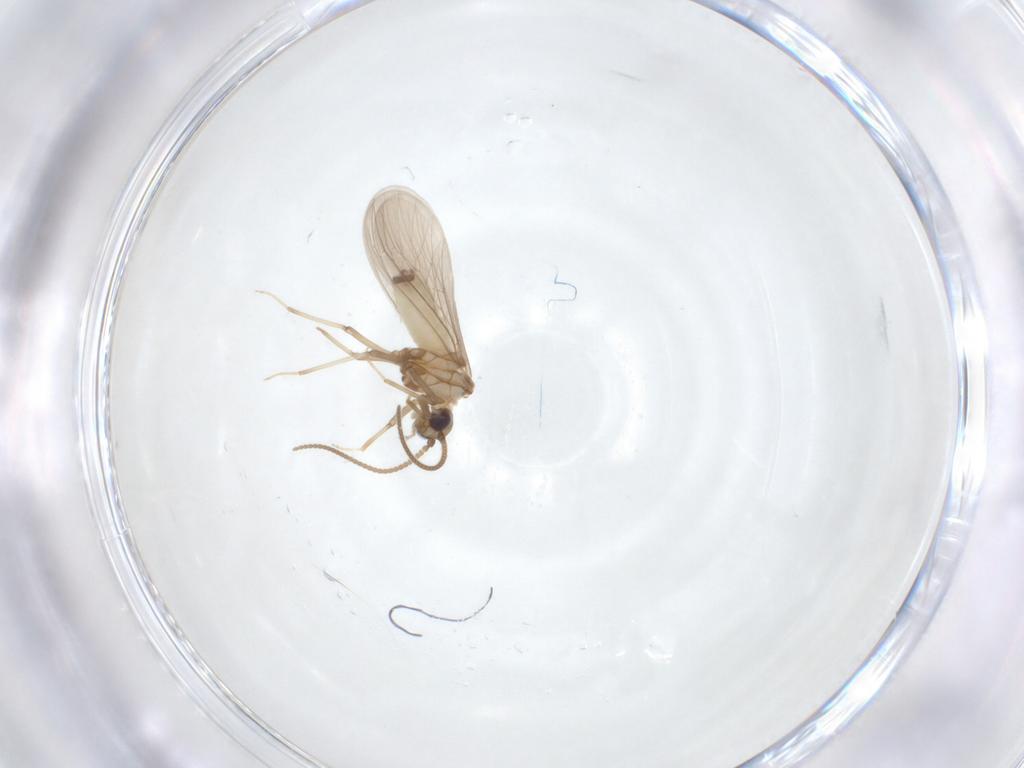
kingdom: Animalia
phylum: Arthropoda
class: Insecta
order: Neuroptera
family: Coniopterygidae
